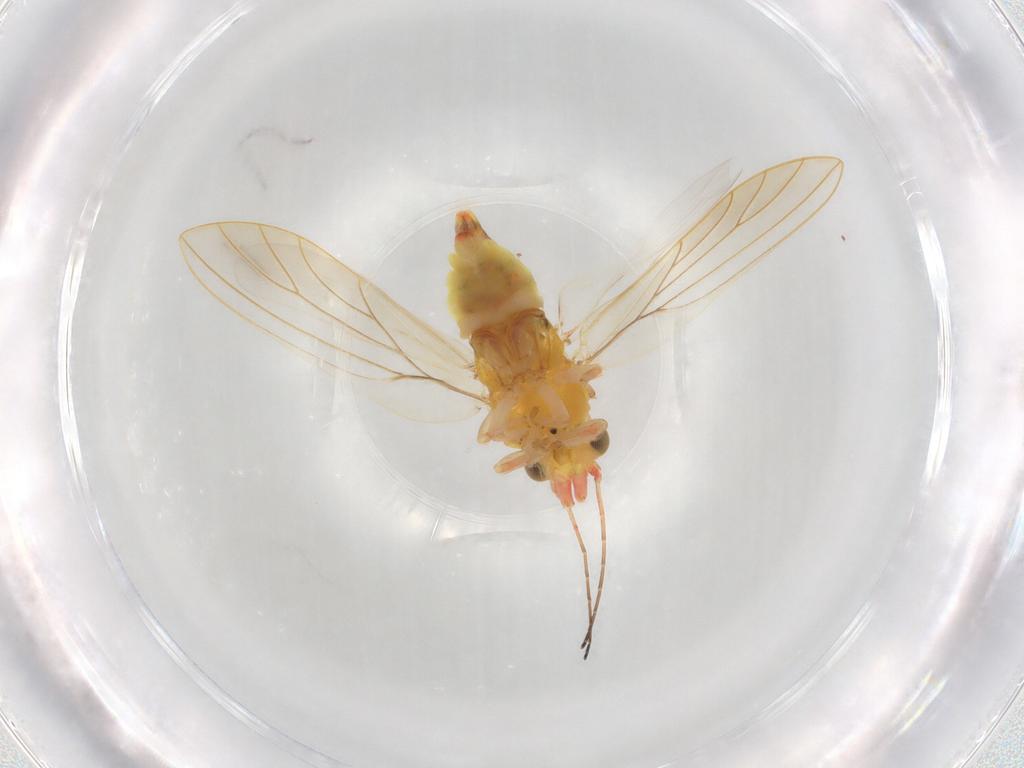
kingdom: Animalia
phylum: Arthropoda
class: Insecta
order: Hemiptera
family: Aphalaridae
